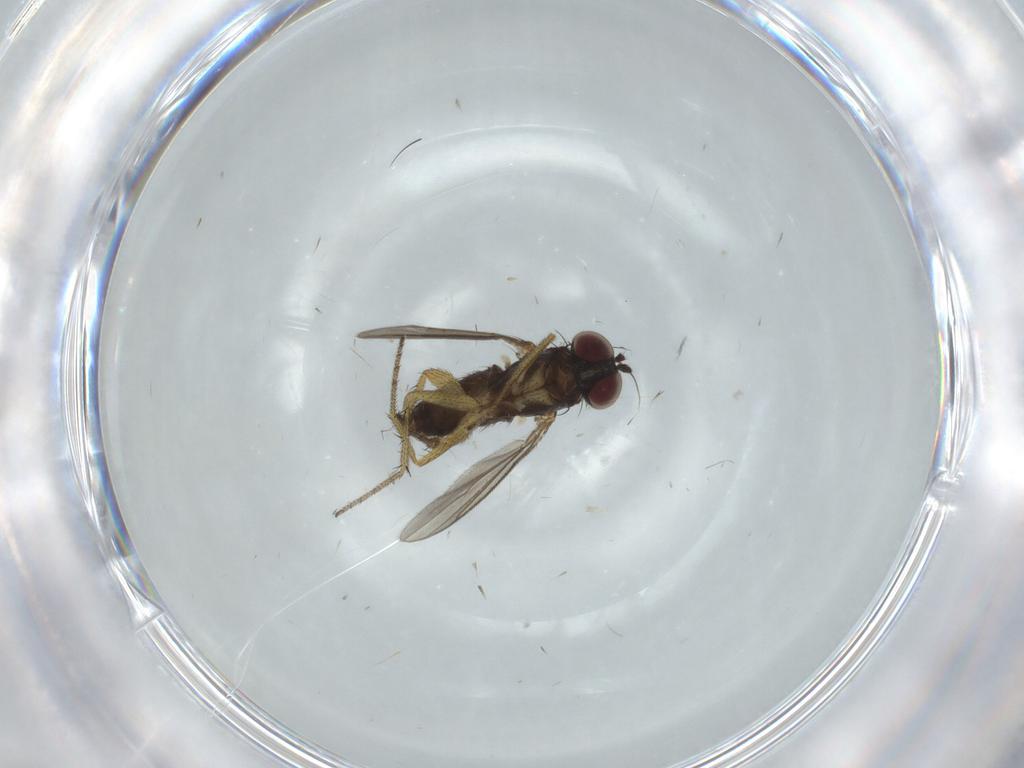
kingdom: Animalia
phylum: Arthropoda
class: Insecta
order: Diptera
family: Dolichopodidae
